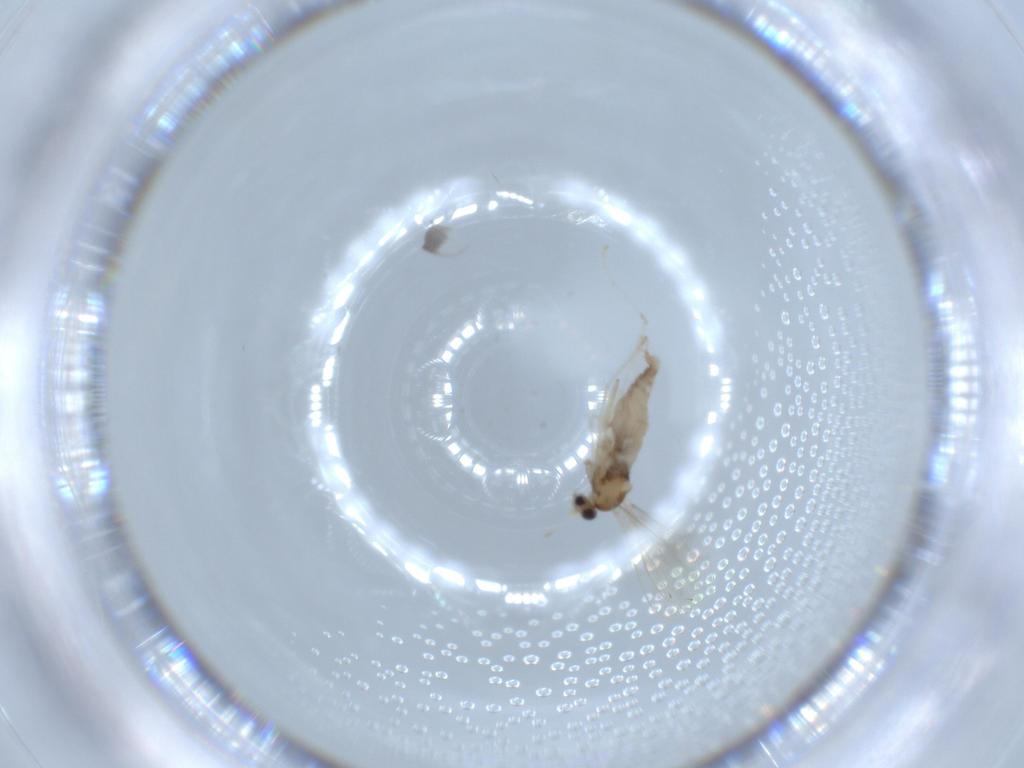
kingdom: Animalia
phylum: Arthropoda
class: Insecta
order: Diptera
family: Cecidomyiidae
